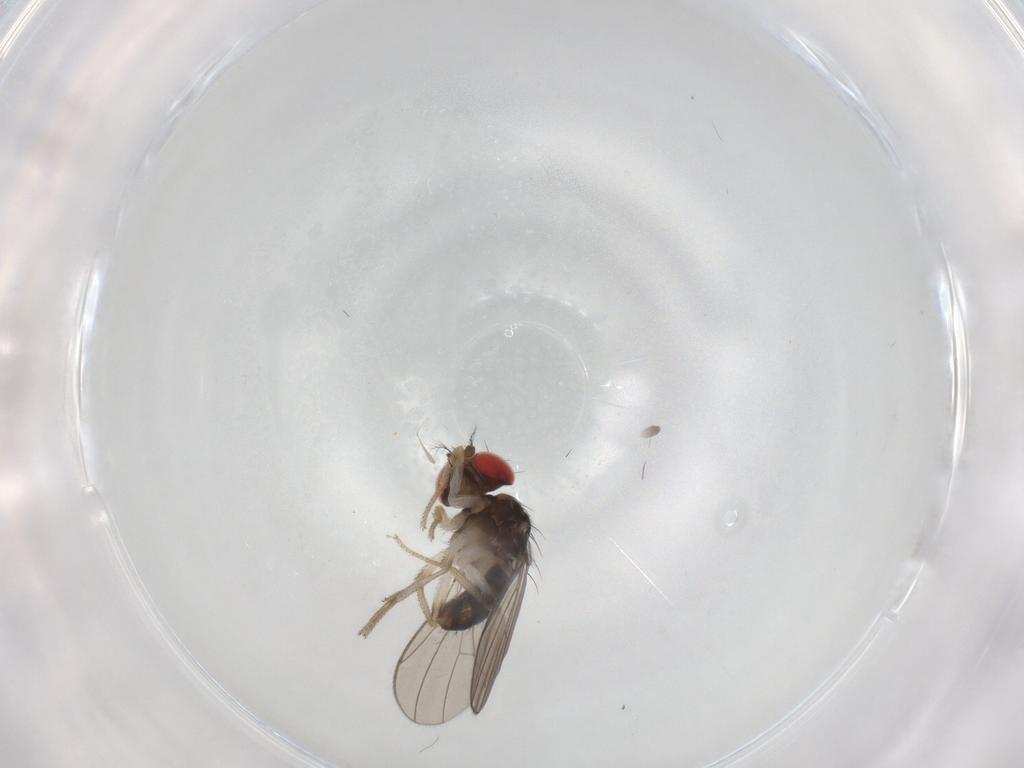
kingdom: Animalia
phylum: Arthropoda
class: Insecta
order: Diptera
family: Drosophilidae
